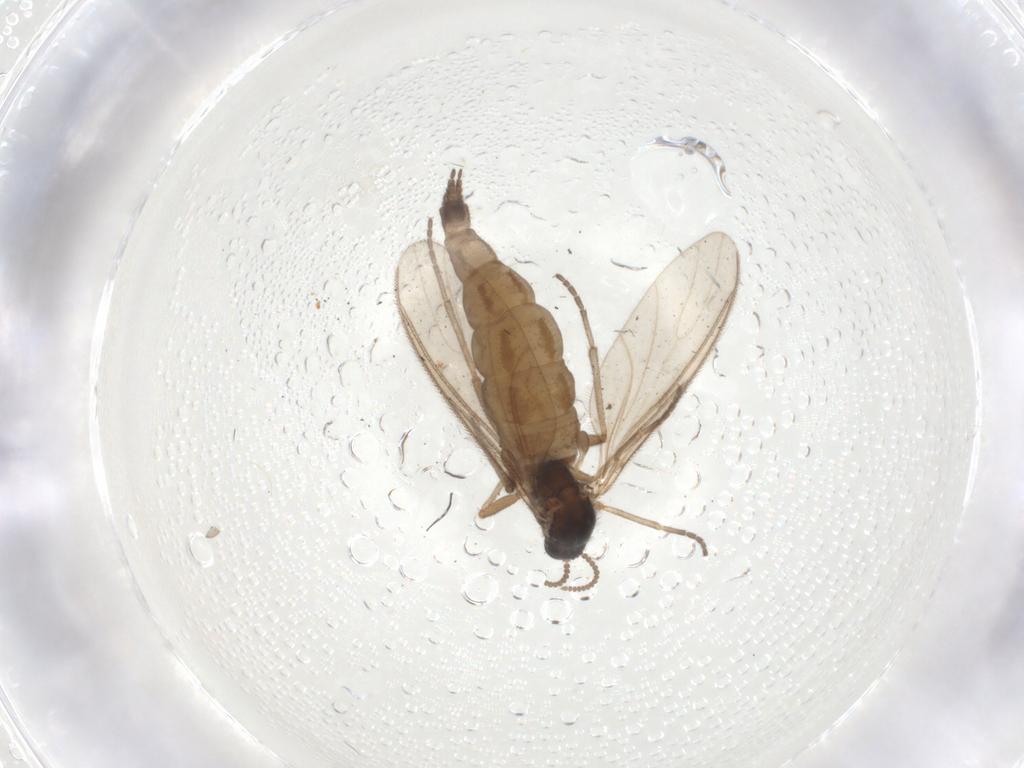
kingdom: Animalia
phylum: Arthropoda
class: Insecta
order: Diptera
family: Sciaridae
